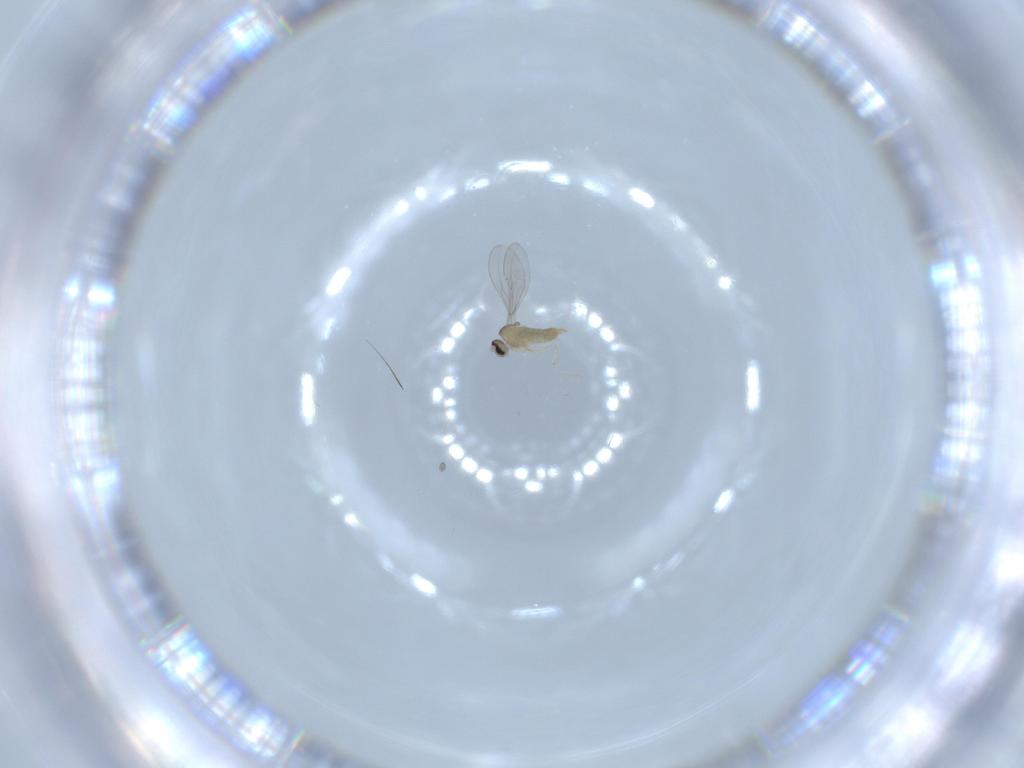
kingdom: Animalia
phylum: Arthropoda
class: Insecta
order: Diptera
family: Cecidomyiidae
